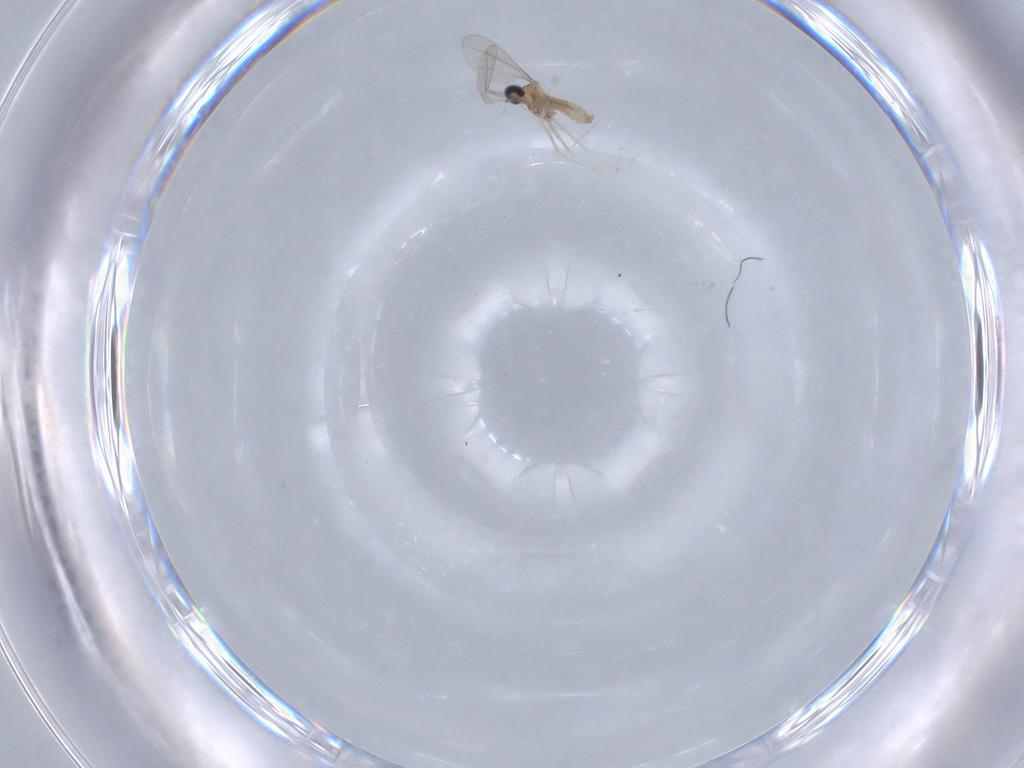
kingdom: Animalia
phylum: Arthropoda
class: Insecta
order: Diptera
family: Cecidomyiidae
